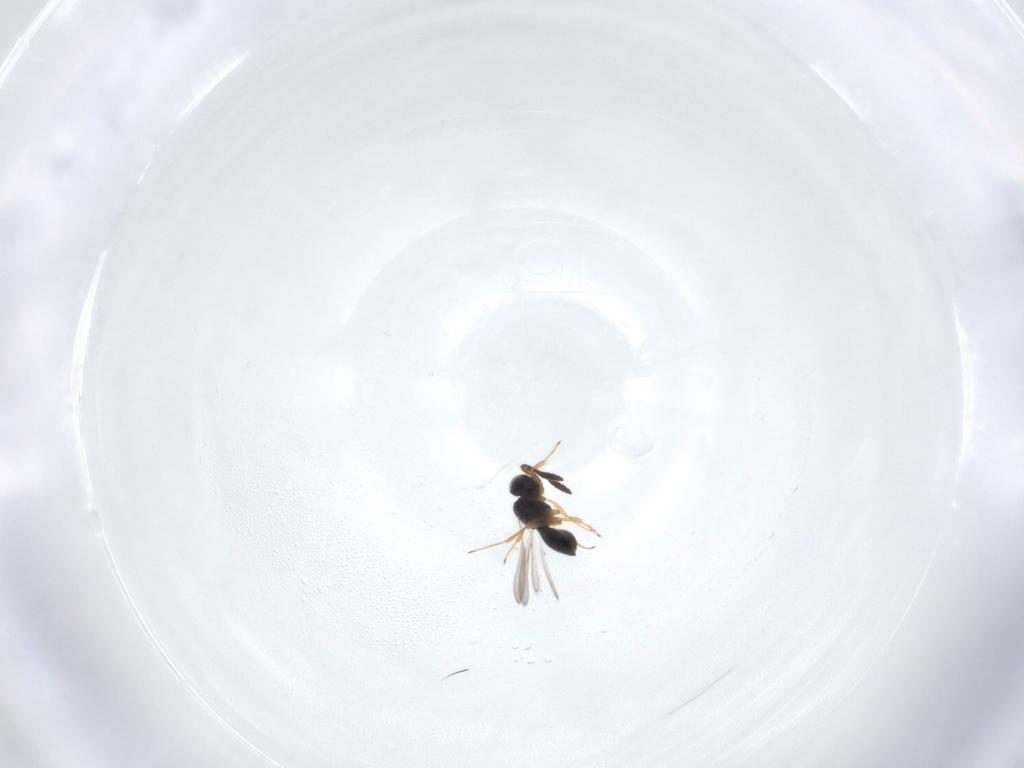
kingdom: Animalia
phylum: Arthropoda
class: Insecta
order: Hymenoptera
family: Scelionidae
